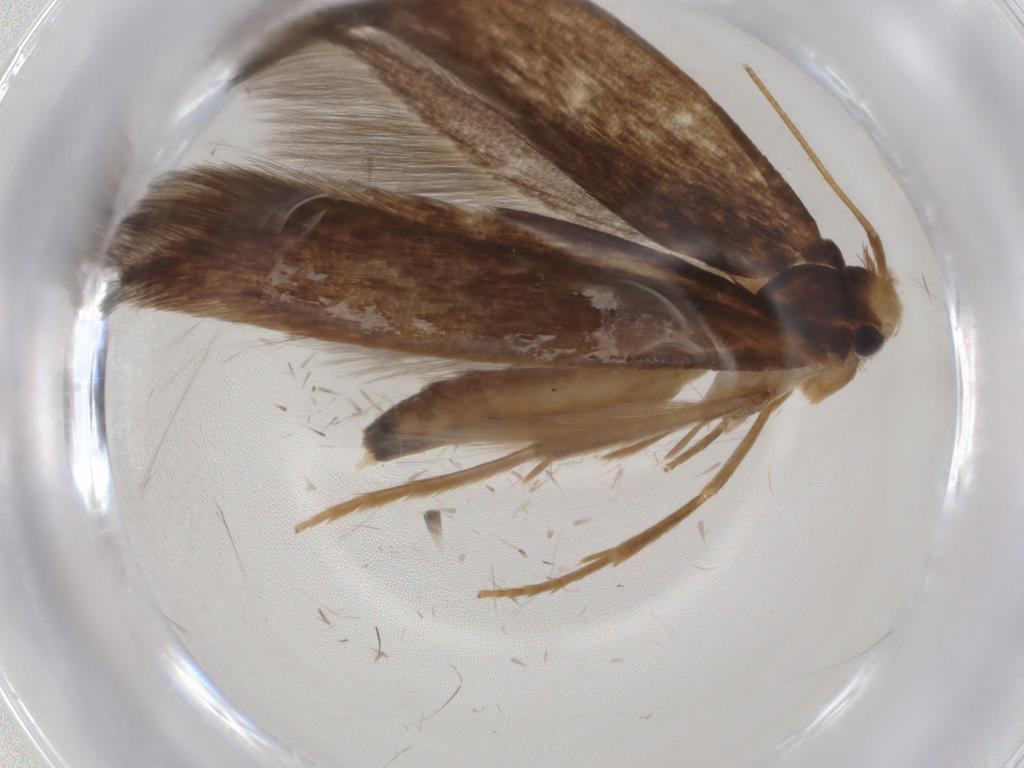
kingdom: Animalia
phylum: Arthropoda
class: Insecta
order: Lepidoptera
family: Tineidae
